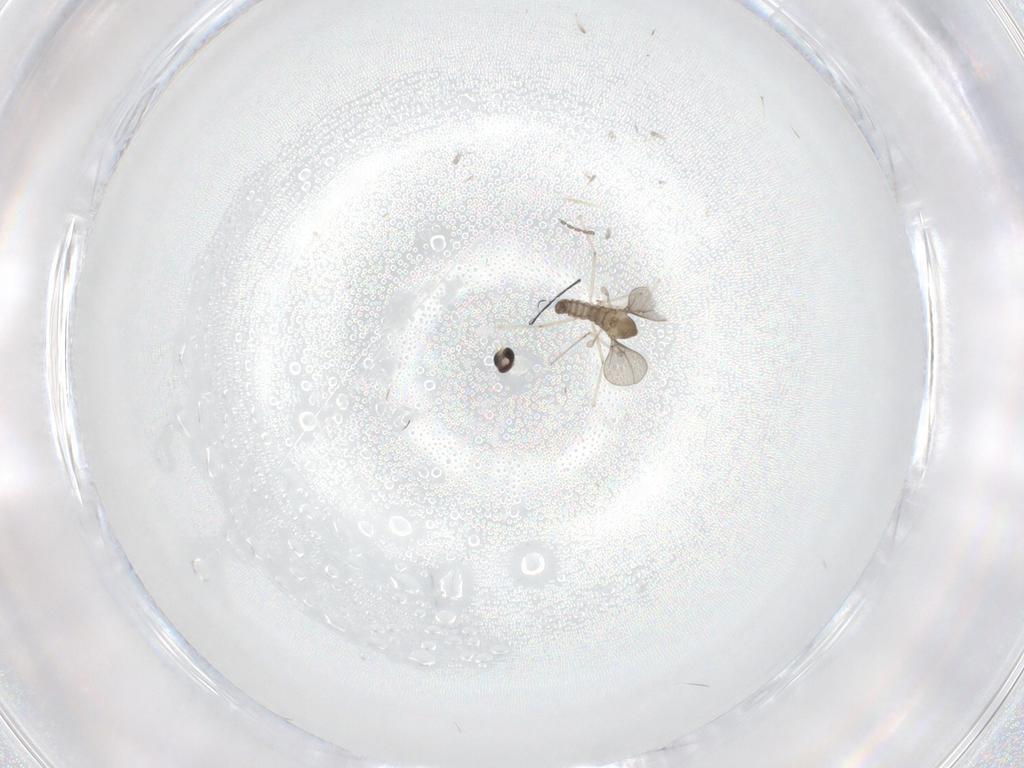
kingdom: Animalia
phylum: Arthropoda
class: Insecta
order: Diptera
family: Cecidomyiidae
